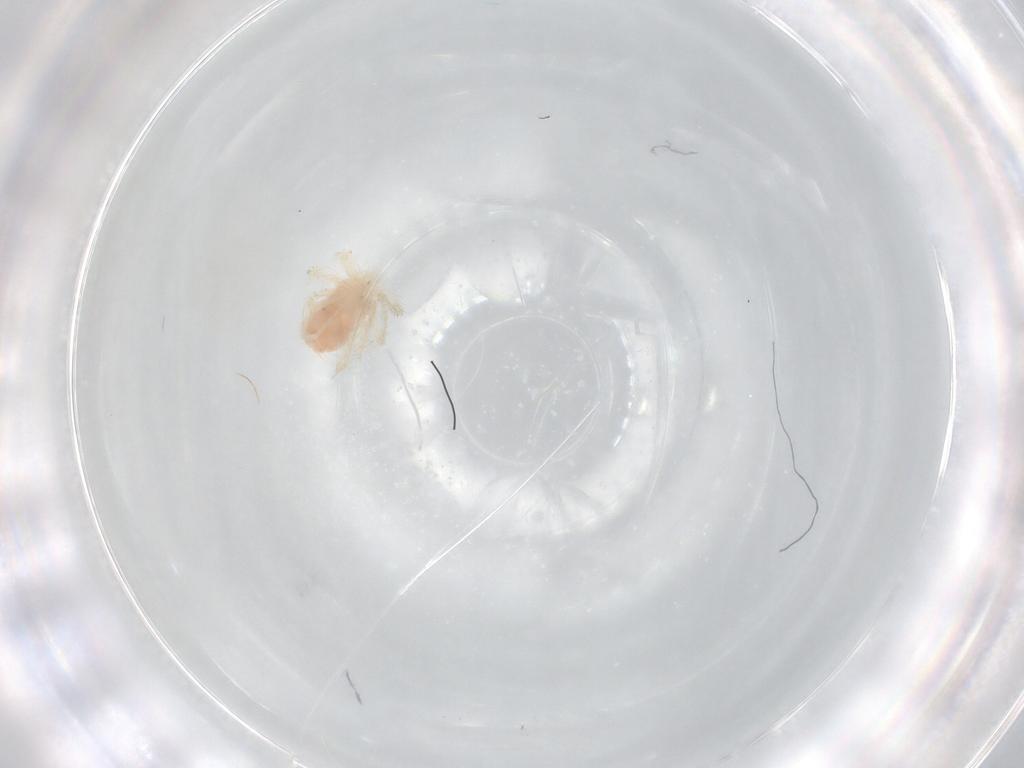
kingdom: Animalia
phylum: Arthropoda
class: Arachnida
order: Trombidiformes
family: Anystidae
